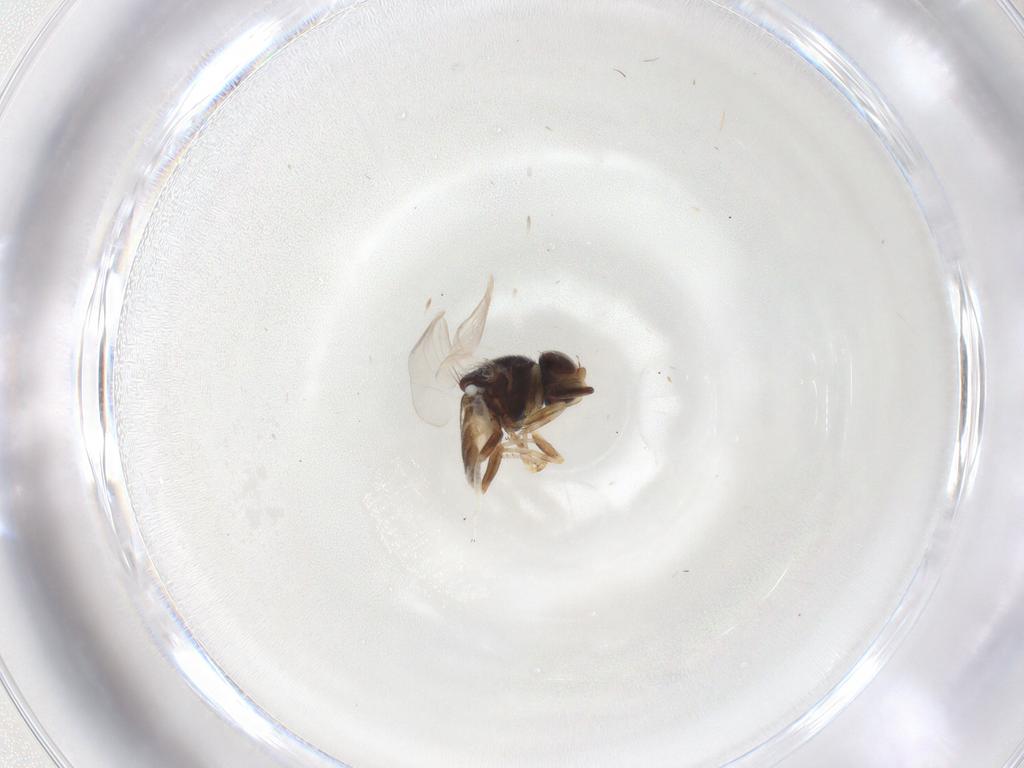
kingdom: Animalia
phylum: Arthropoda
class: Insecta
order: Diptera
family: Chloropidae
